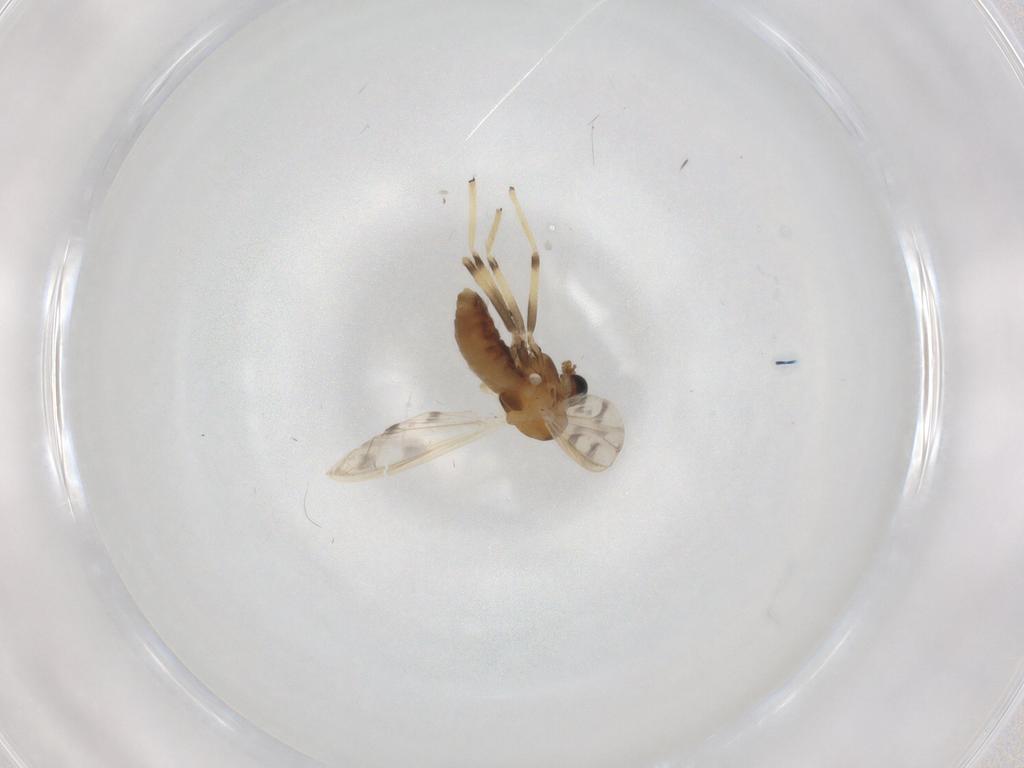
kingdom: Animalia
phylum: Arthropoda
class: Insecta
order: Diptera
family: Chironomidae
